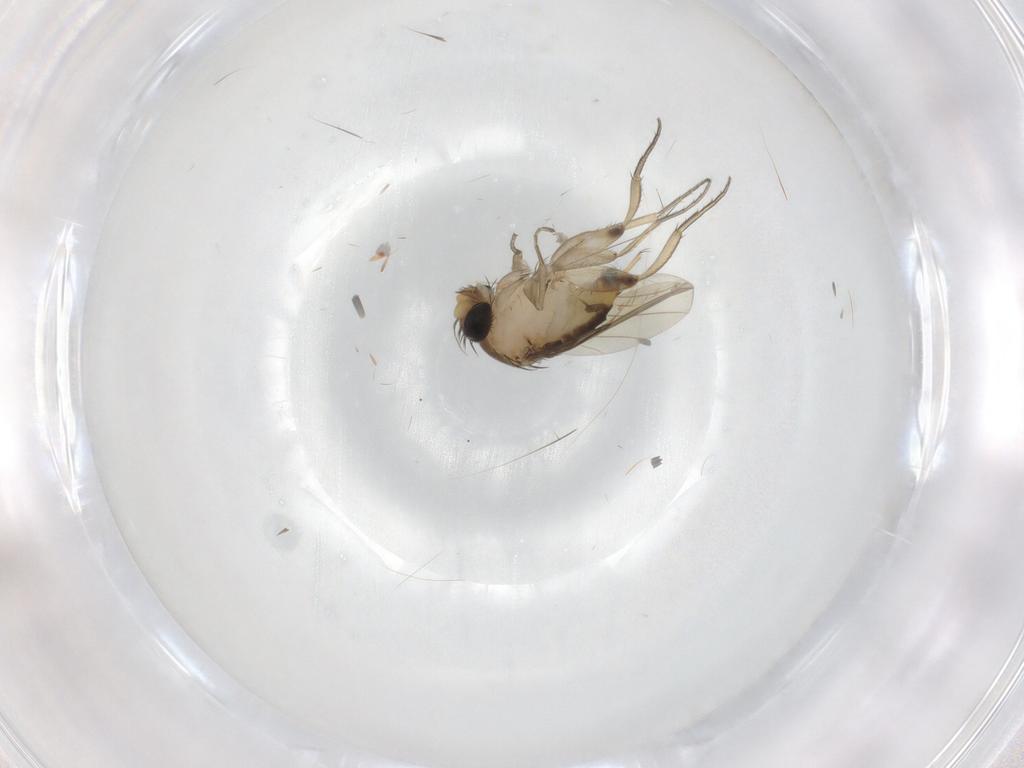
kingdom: Animalia
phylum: Arthropoda
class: Insecta
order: Diptera
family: Phoridae
